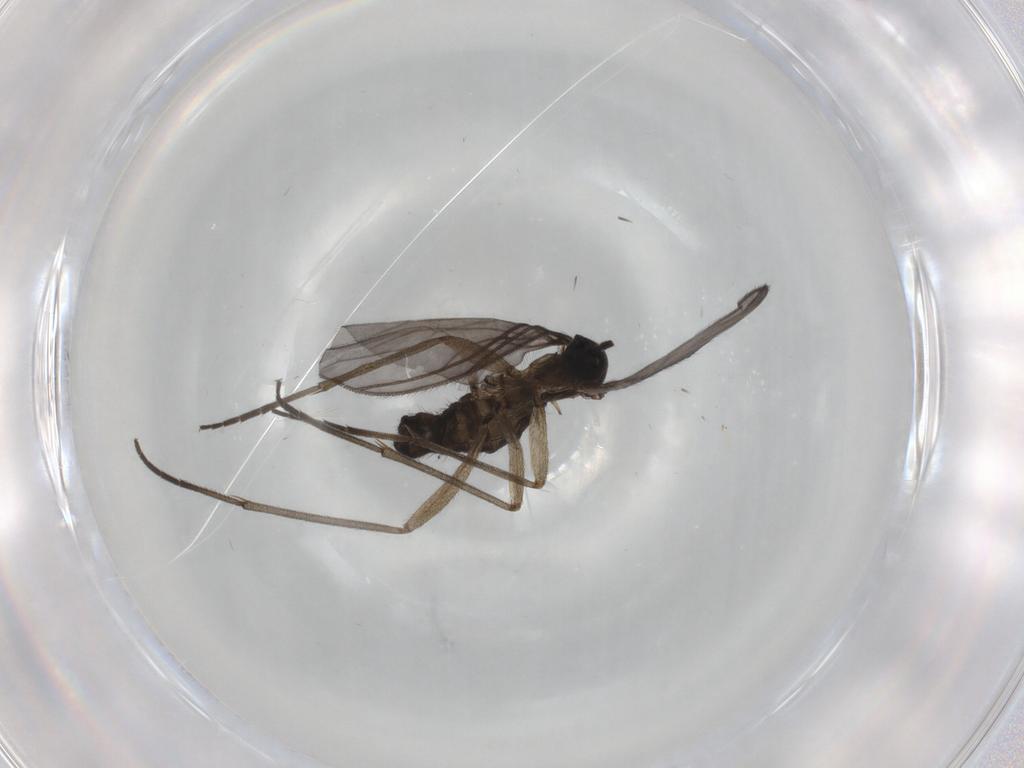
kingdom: Animalia
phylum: Arthropoda
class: Insecta
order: Diptera
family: Sciaridae
